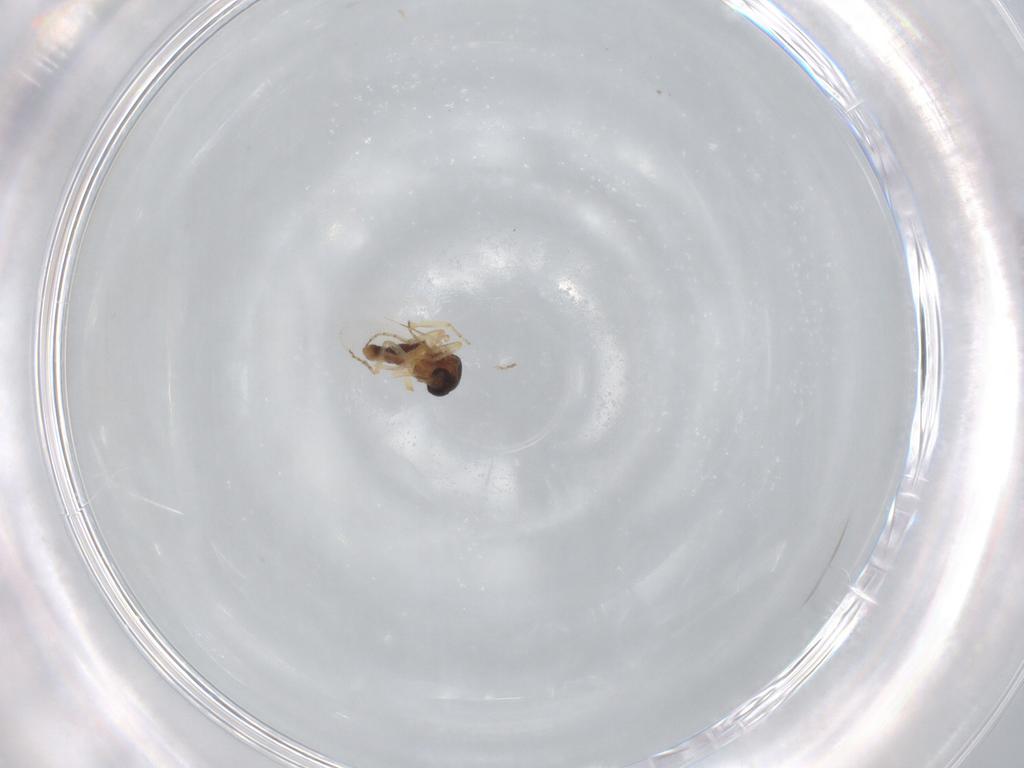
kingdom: Animalia
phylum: Arthropoda
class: Insecta
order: Diptera
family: Ceratopogonidae
